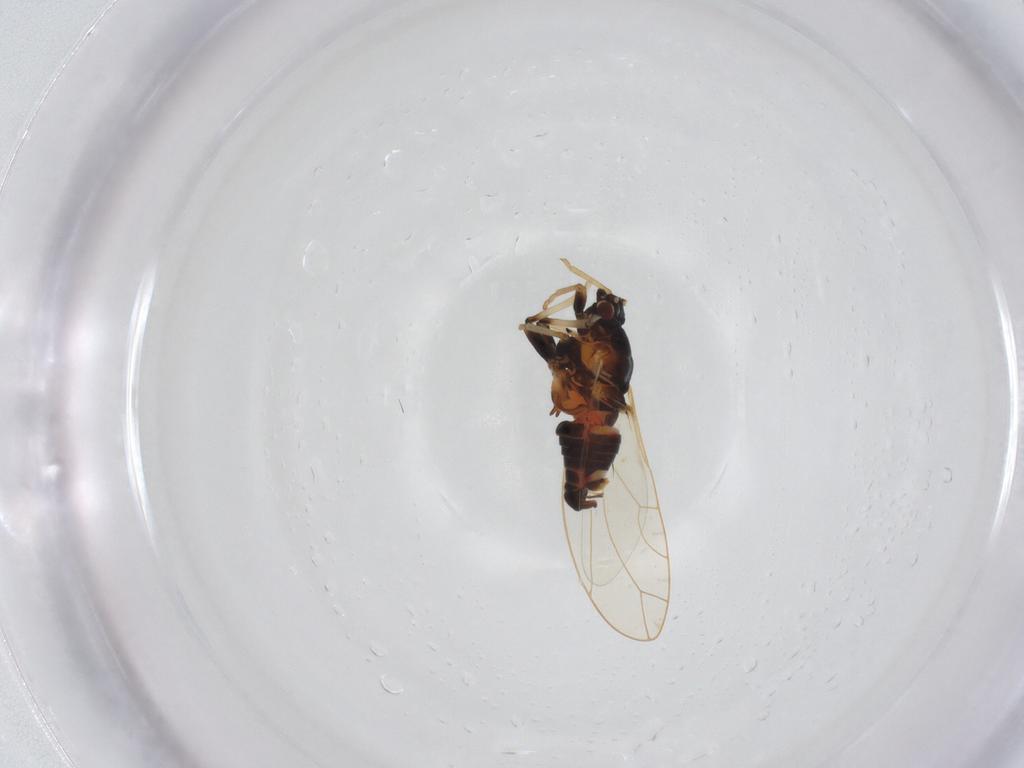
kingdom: Animalia
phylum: Arthropoda
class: Insecta
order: Hemiptera
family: Triozidae
